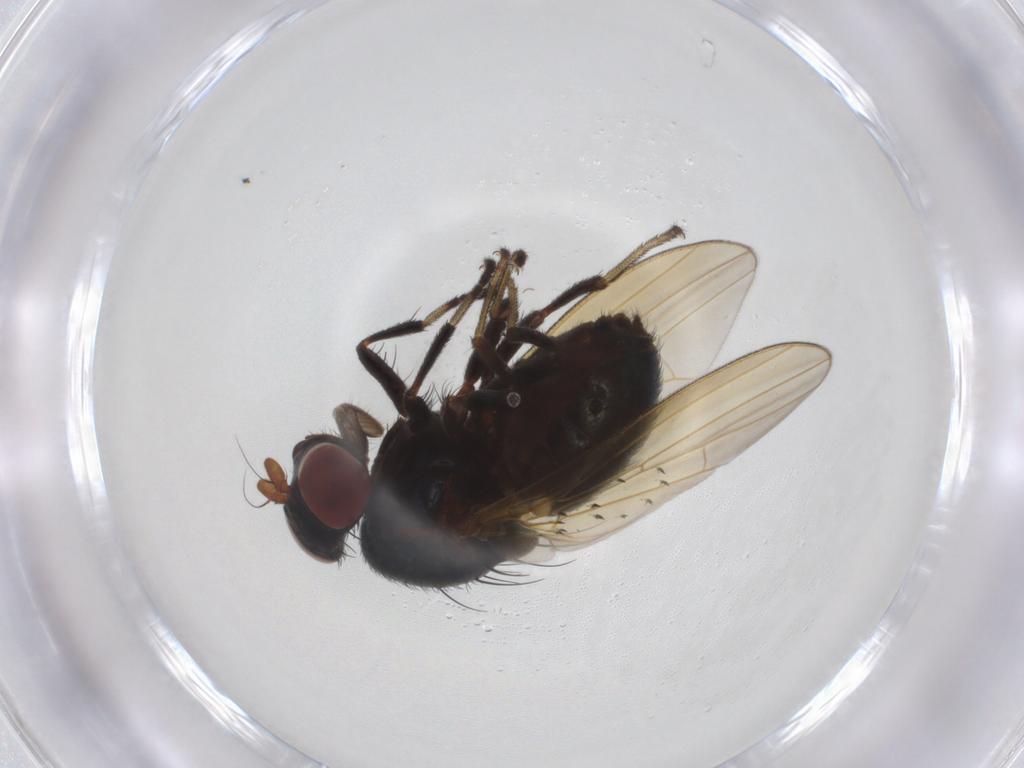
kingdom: Animalia
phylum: Arthropoda
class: Insecta
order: Diptera
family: Lauxaniidae
